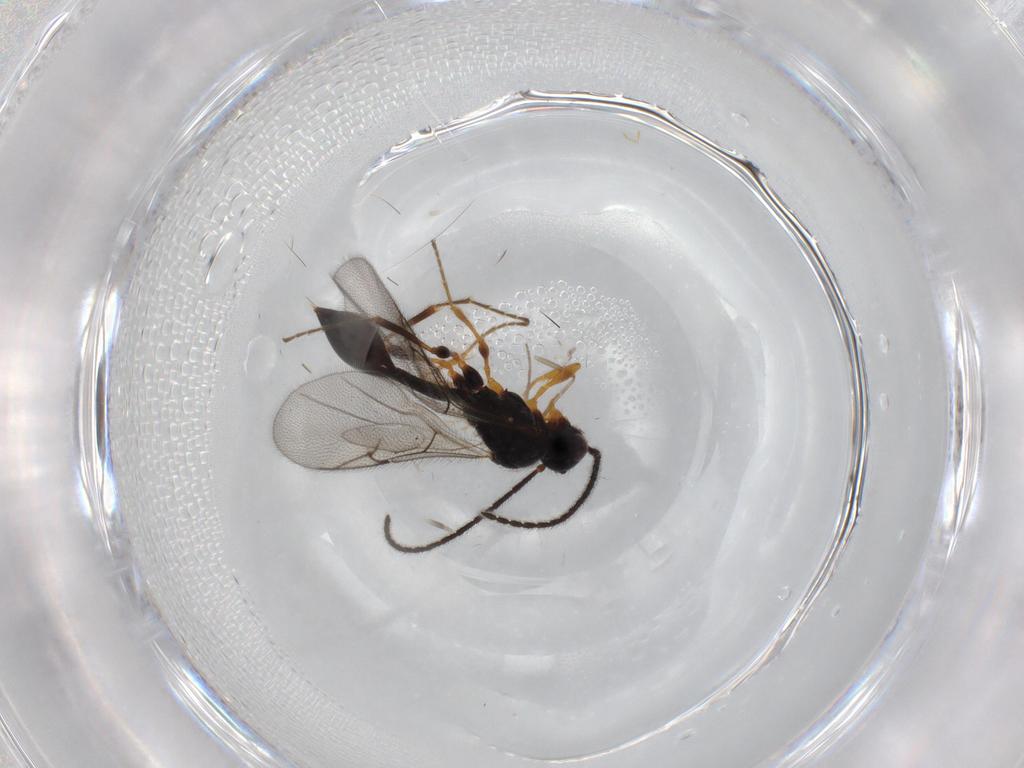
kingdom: Animalia
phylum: Arthropoda
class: Insecta
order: Hymenoptera
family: Diapriidae
